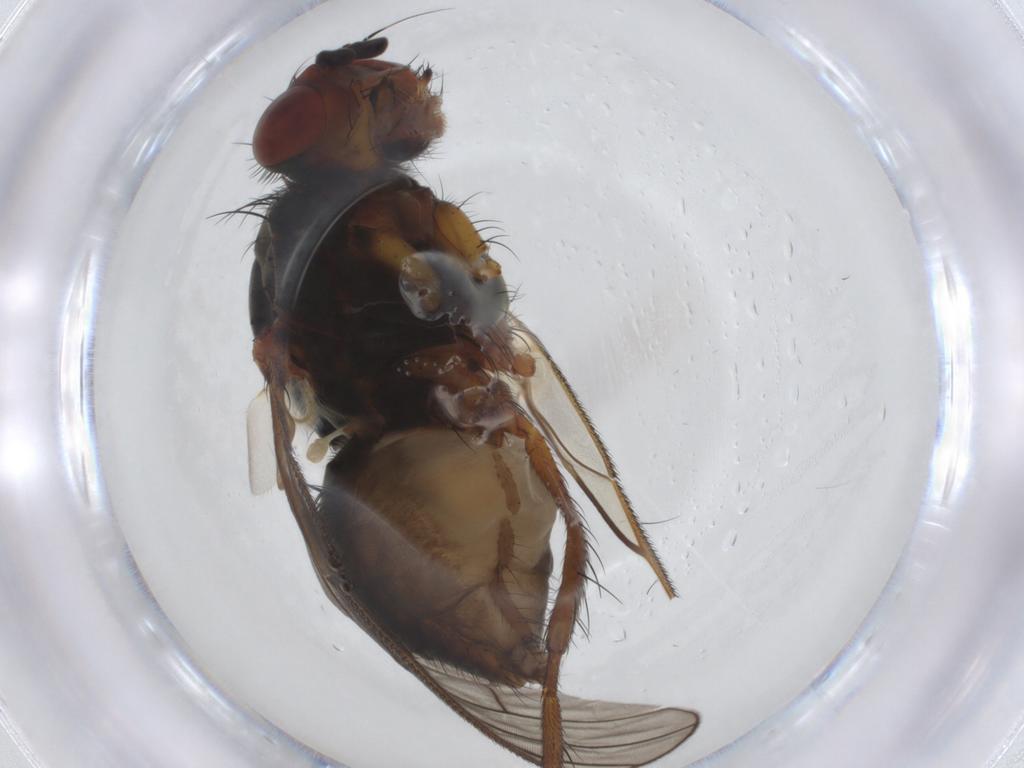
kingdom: Animalia
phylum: Arthropoda
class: Insecta
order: Diptera
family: Anthomyiidae
